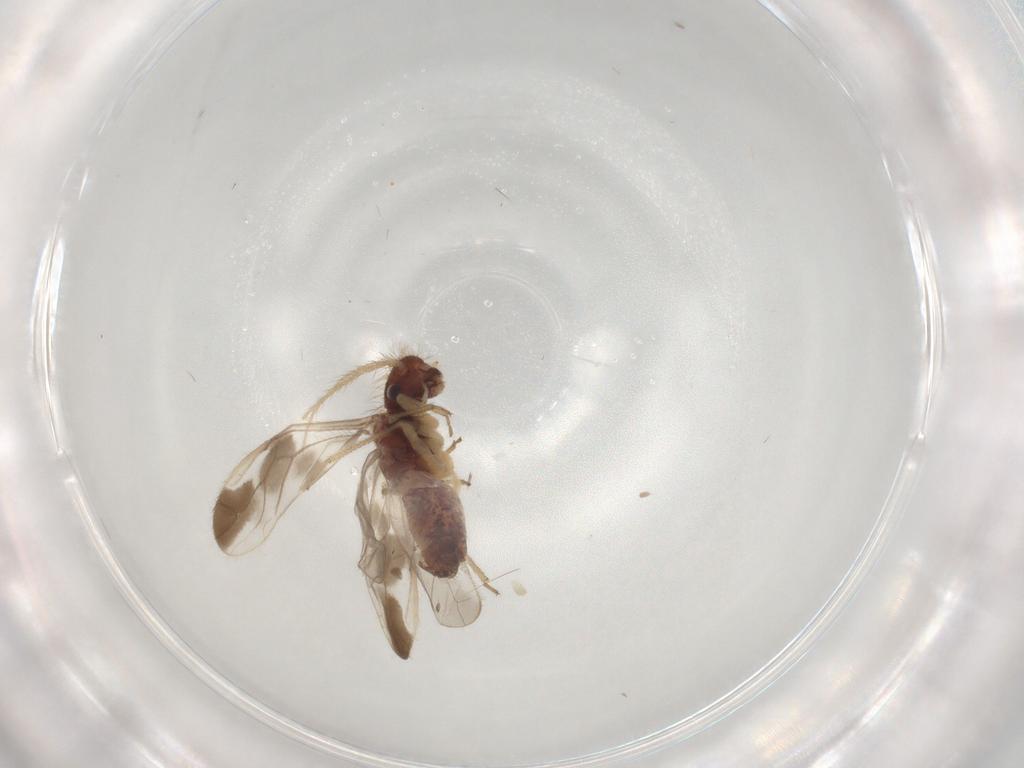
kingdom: Animalia
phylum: Arthropoda
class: Insecta
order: Psocodea
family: Pseudocaeciliidae
